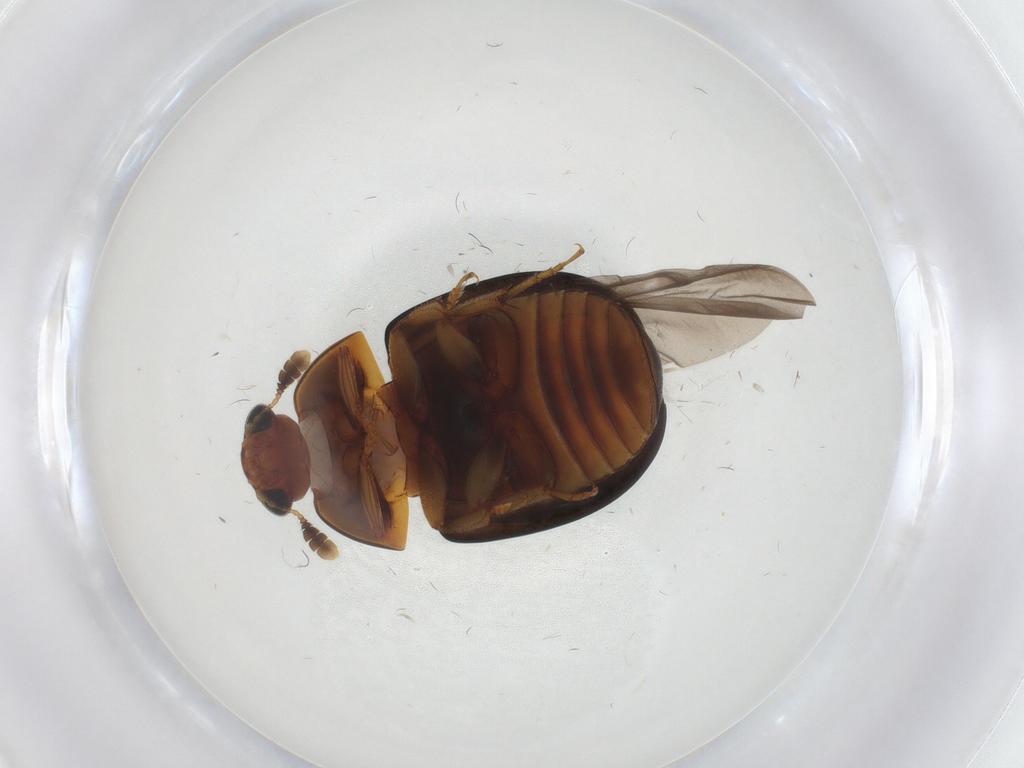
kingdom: Animalia
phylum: Arthropoda
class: Insecta
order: Coleoptera
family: Nitidulidae
